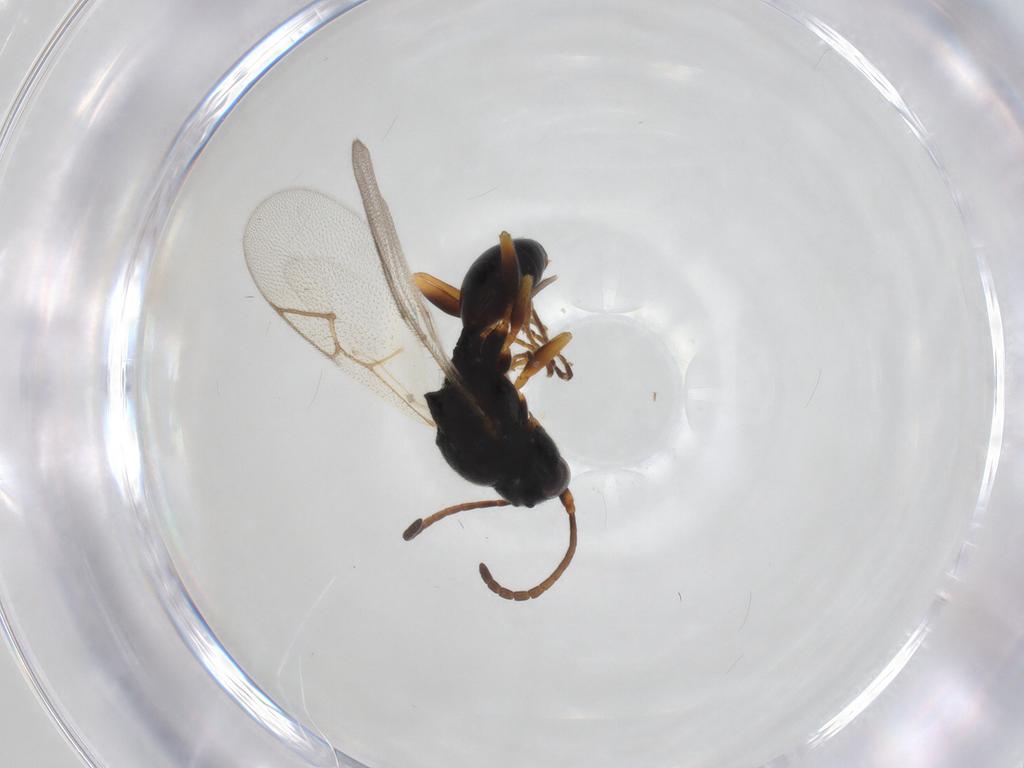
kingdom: Animalia
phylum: Arthropoda
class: Insecta
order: Hymenoptera
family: Figitidae
